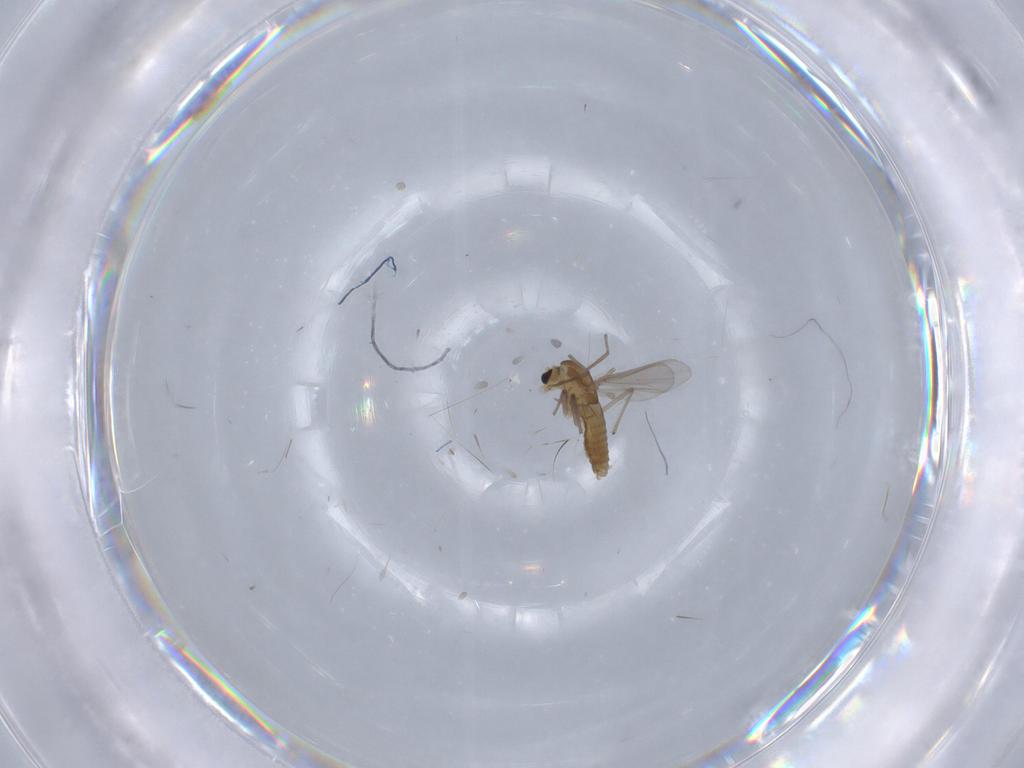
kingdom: Animalia
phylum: Arthropoda
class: Insecta
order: Diptera
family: Chironomidae
